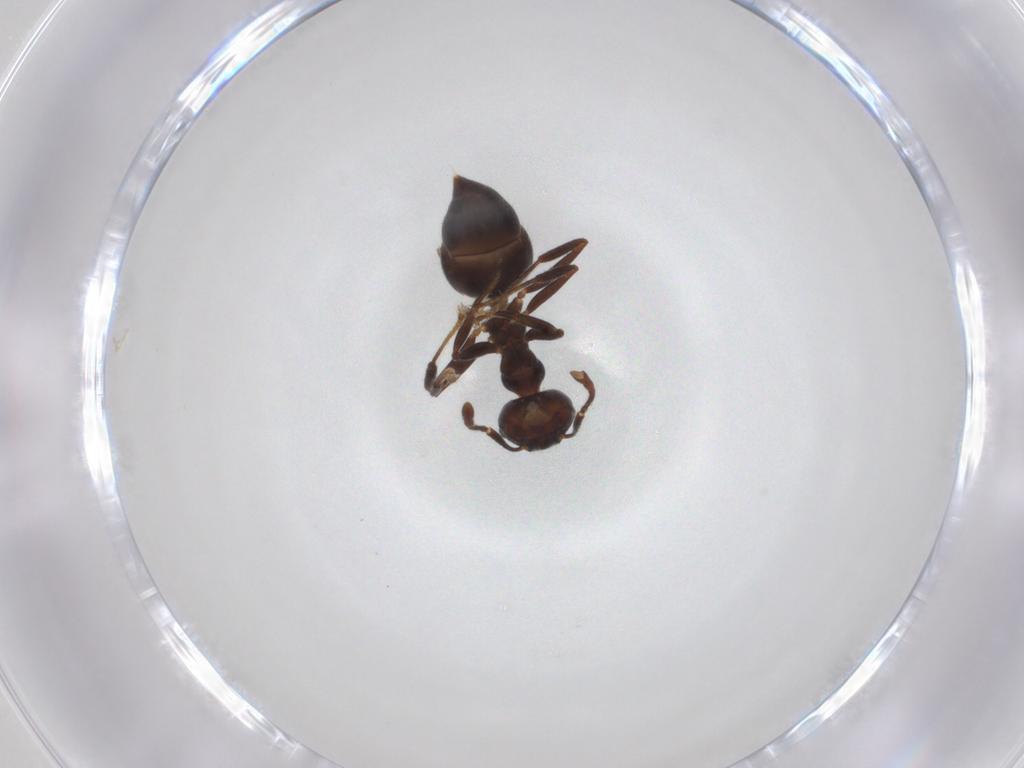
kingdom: Animalia
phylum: Arthropoda
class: Insecta
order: Hymenoptera
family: Formicidae
